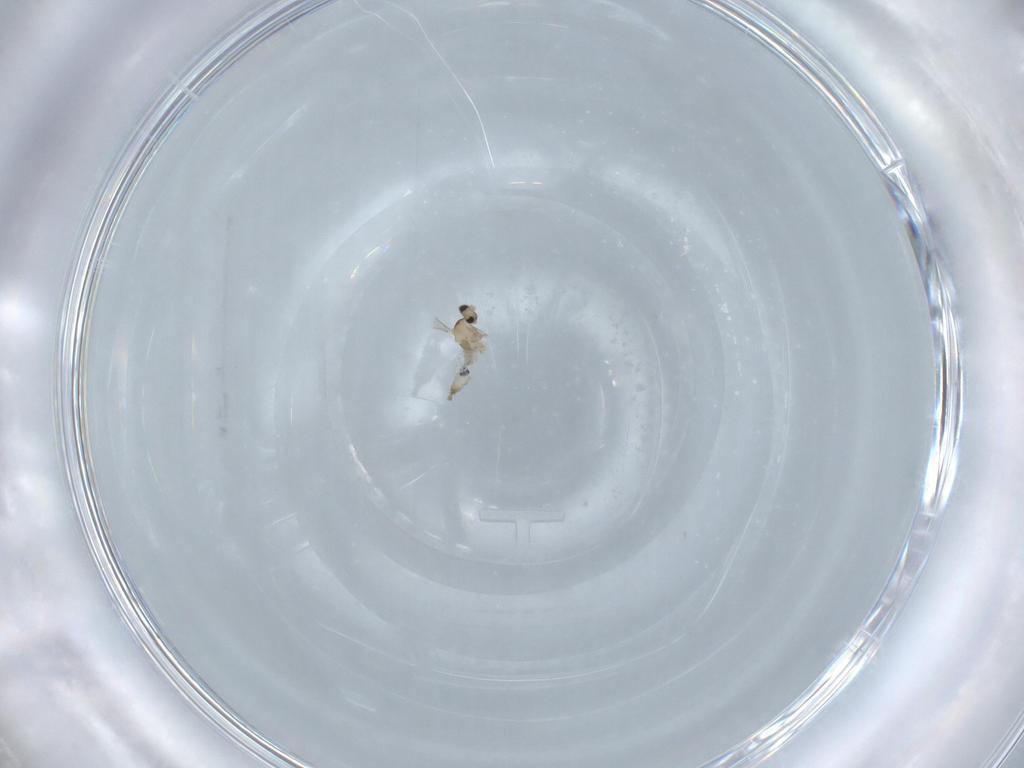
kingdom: Animalia
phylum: Arthropoda
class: Insecta
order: Diptera
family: Cecidomyiidae
